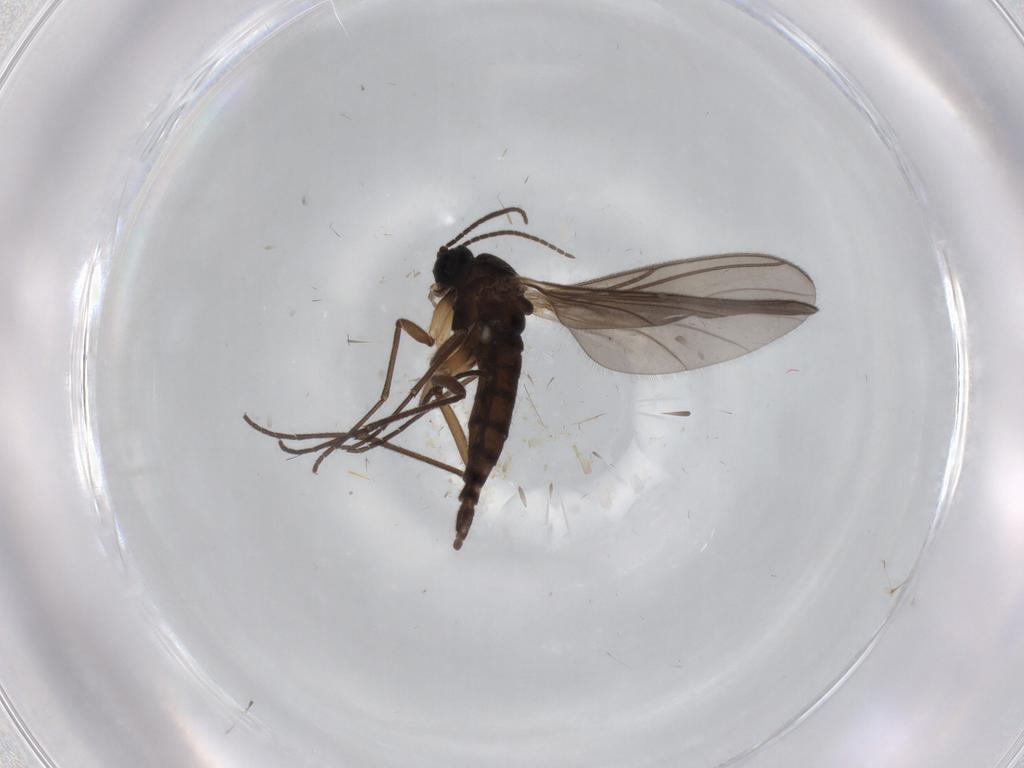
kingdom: Animalia
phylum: Arthropoda
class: Insecta
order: Diptera
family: Sciaridae
